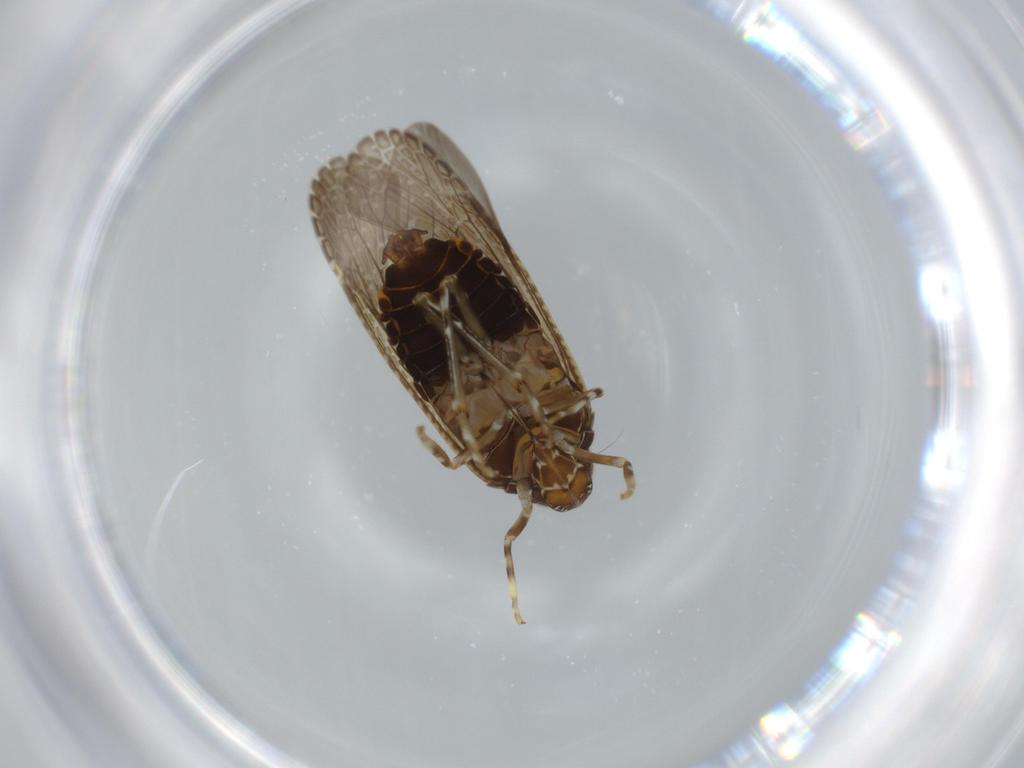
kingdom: Animalia
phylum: Arthropoda
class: Insecta
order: Hemiptera
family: Achilidae
